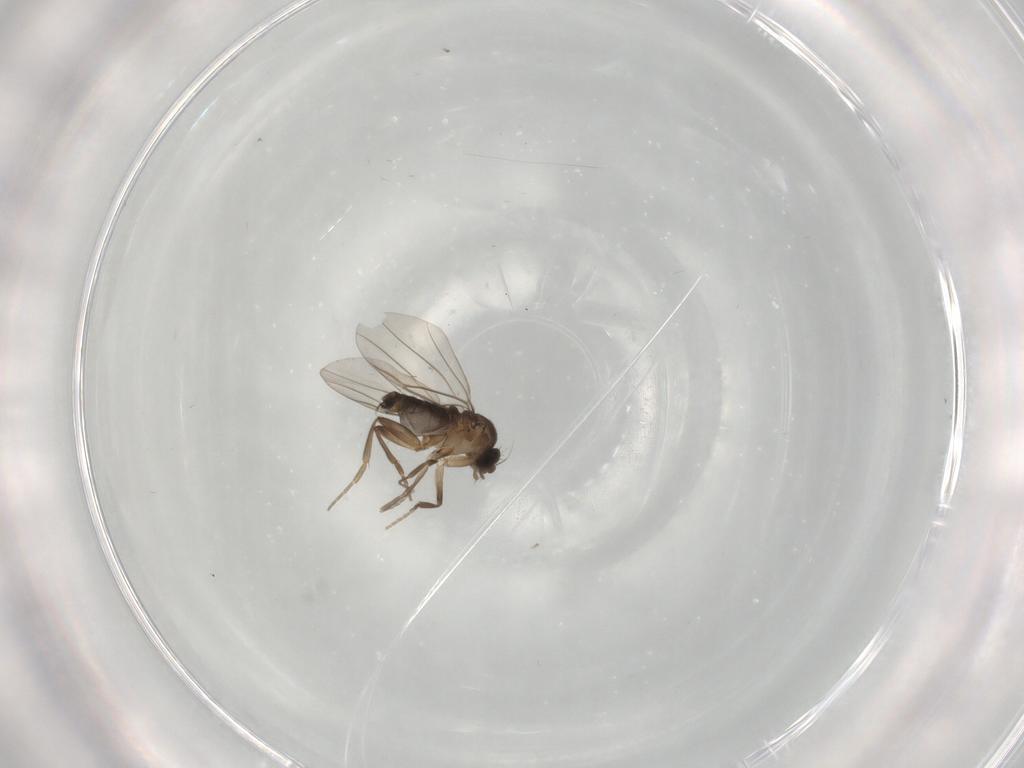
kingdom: Animalia
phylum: Arthropoda
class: Insecta
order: Diptera
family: Phoridae
